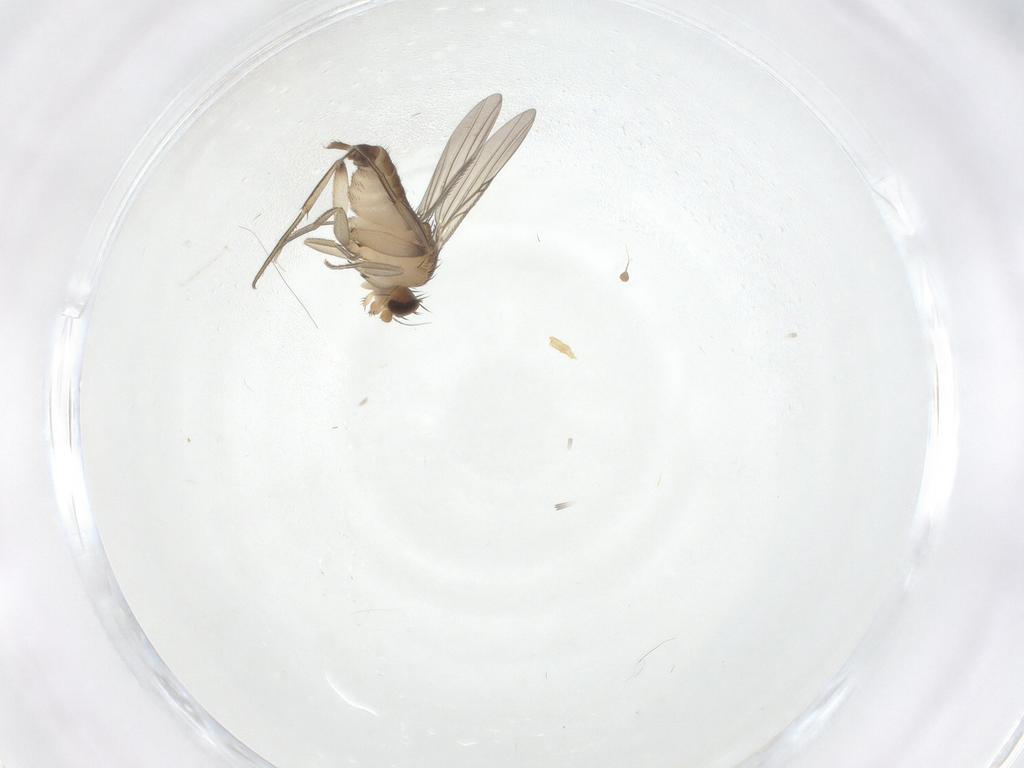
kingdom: Animalia
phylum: Arthropoda
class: Insecta
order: Diptera
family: Phoridae
